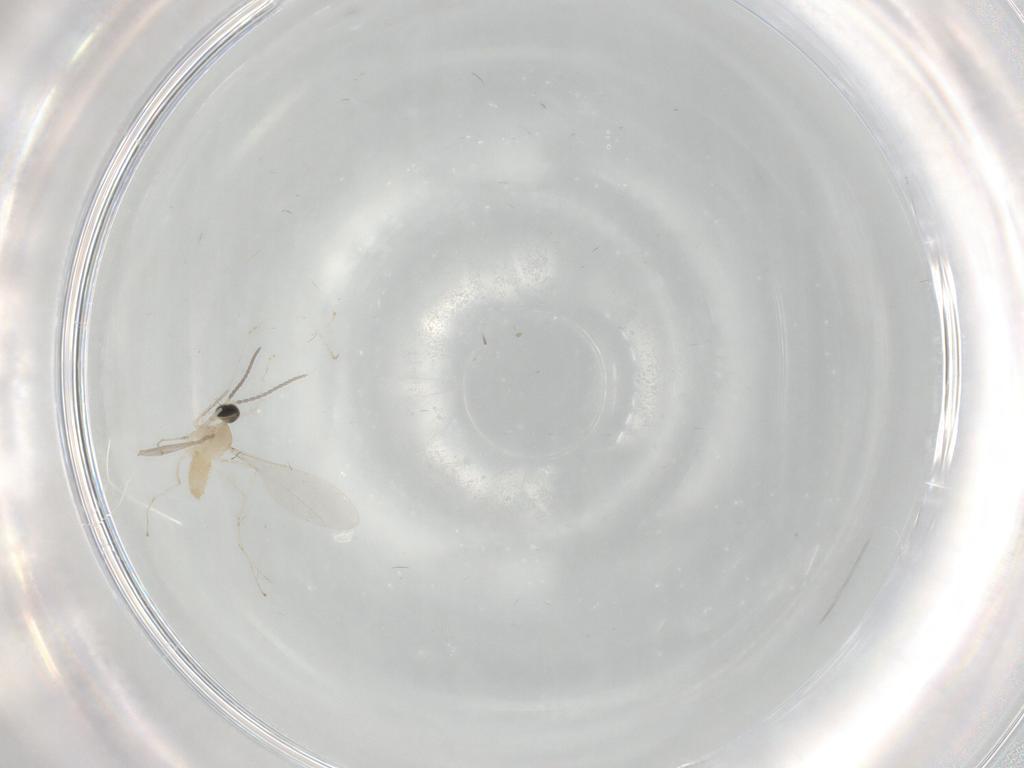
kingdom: Animalia
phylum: Arthropoda
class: Insecta
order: Diptera
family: Cecidomyiidae
